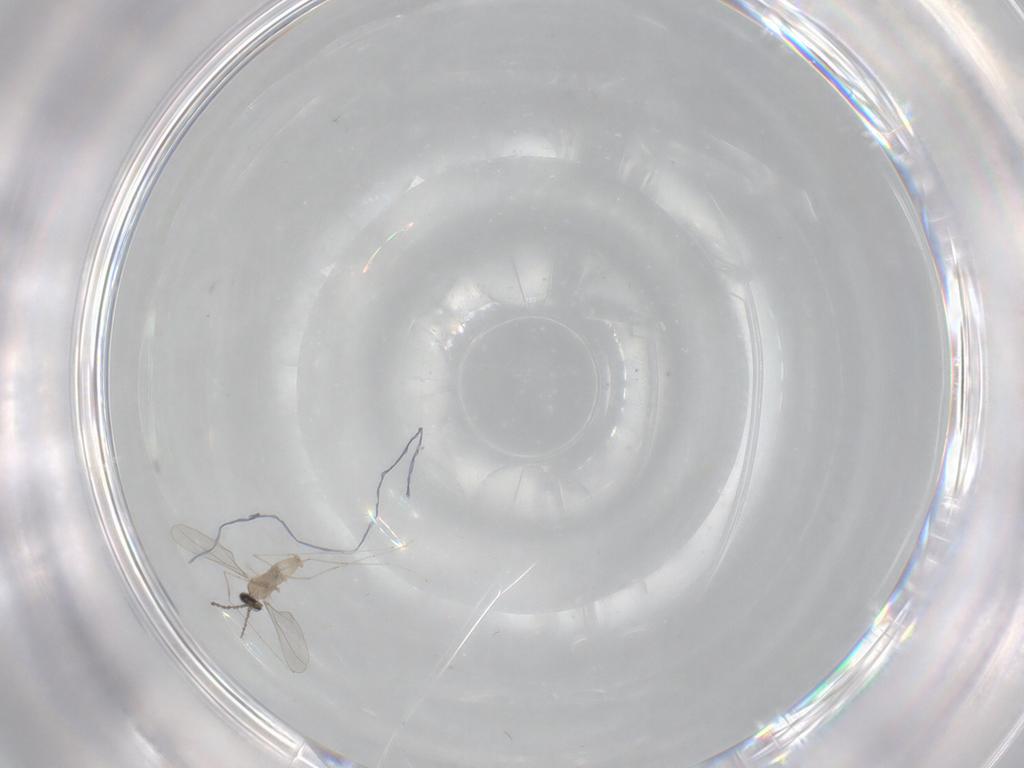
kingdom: Animalia
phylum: Arthropoda
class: Insecta
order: Diptera
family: Cecidomyiidae
